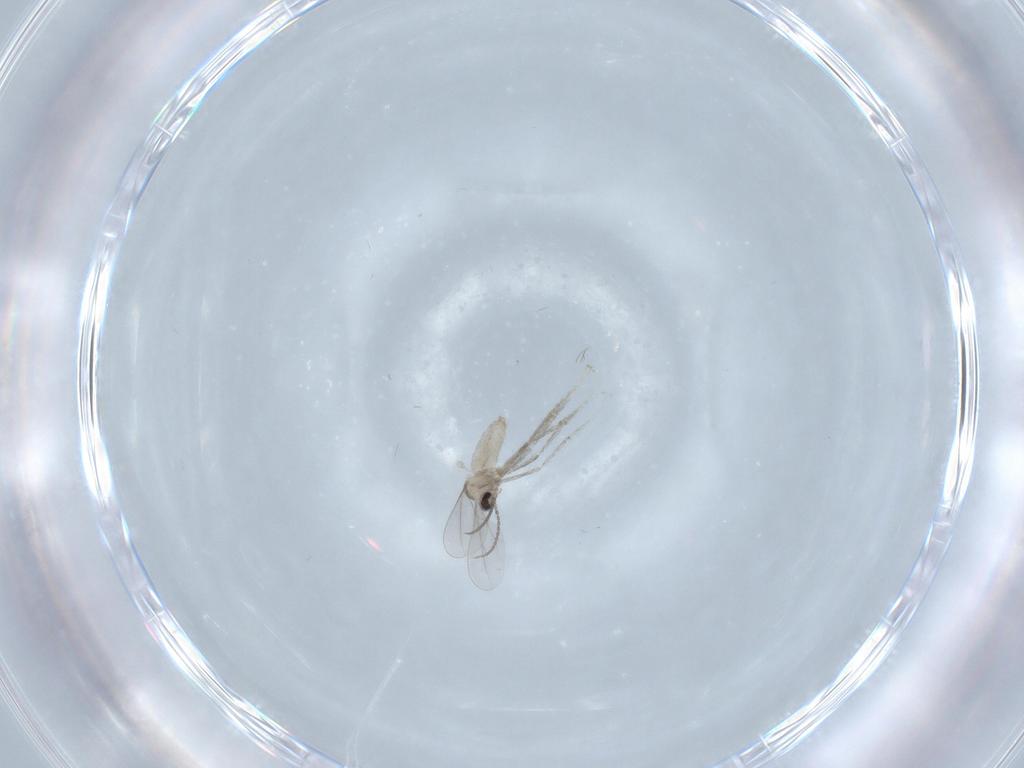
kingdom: Animalia
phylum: Arthropoda
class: Insecta
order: Diptera
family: Cecidomyiidae
